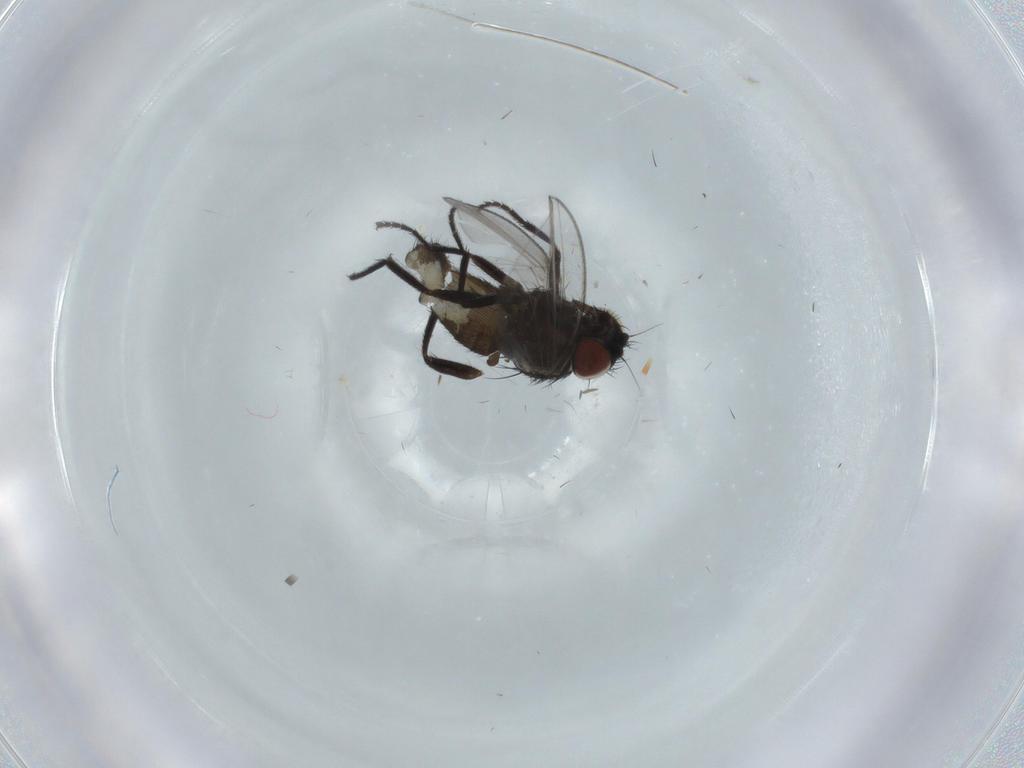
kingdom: Animalia
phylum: Arthropoda
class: Insecta
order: Diptera
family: Milichiidae
